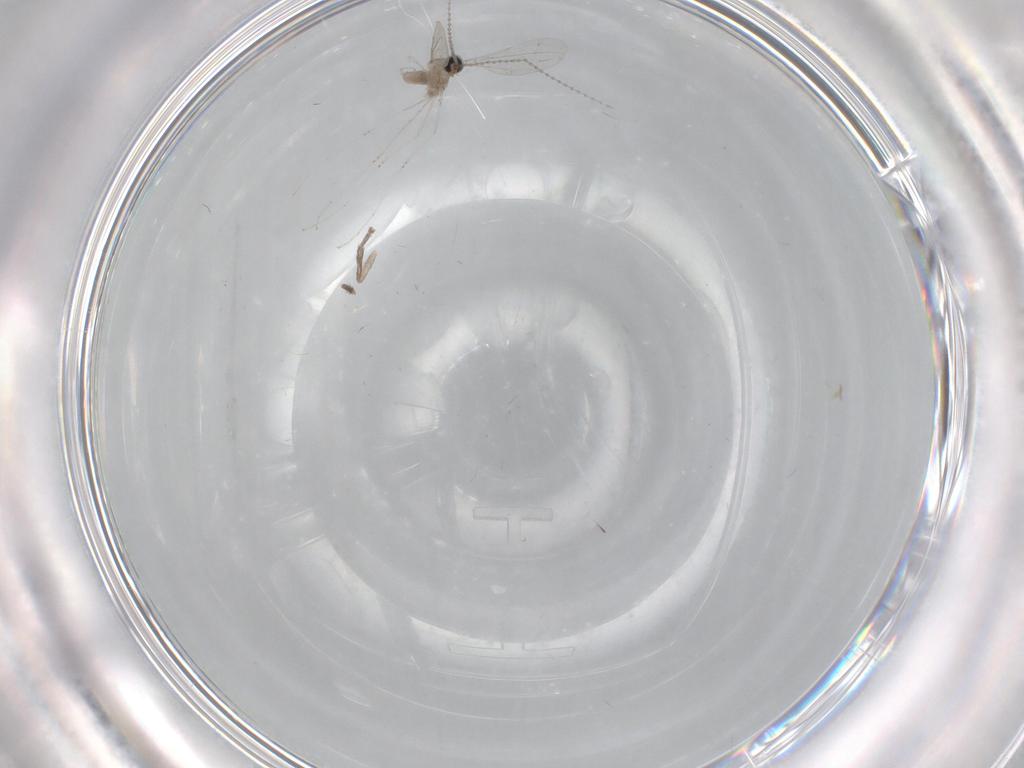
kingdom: Animalia
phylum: Arthropoda
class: Insecta
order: Diptera
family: Cecidomyiidae
